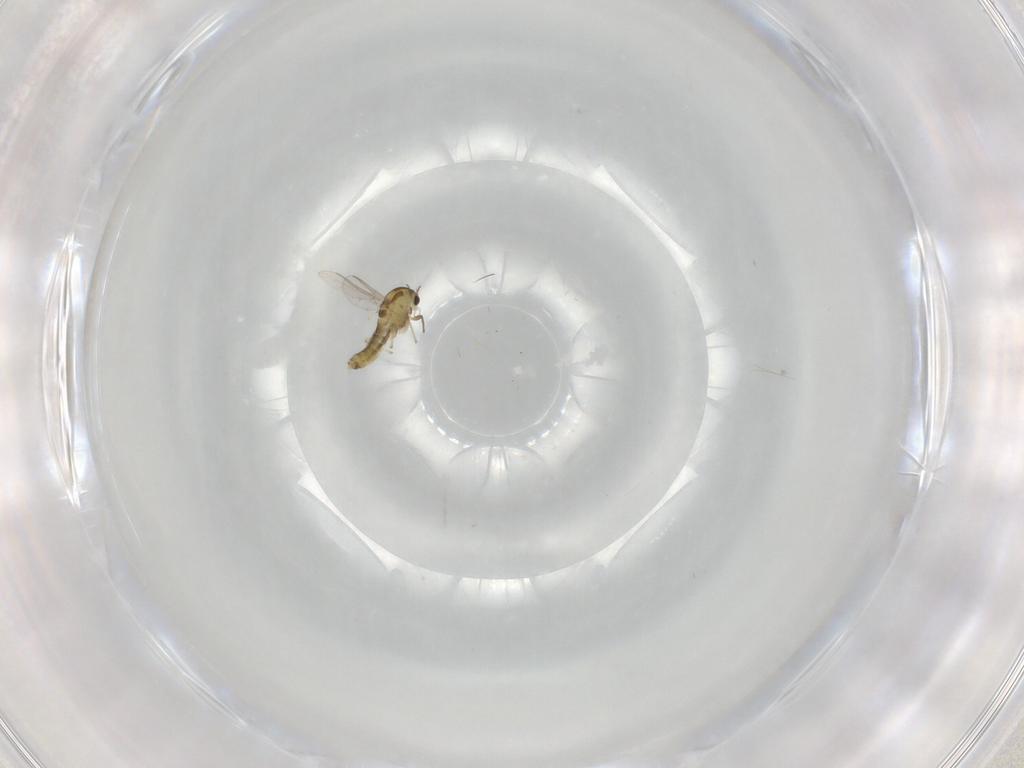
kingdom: Animalia
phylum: Arthropoda
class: Insecta
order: Diptera
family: Chironomidae
